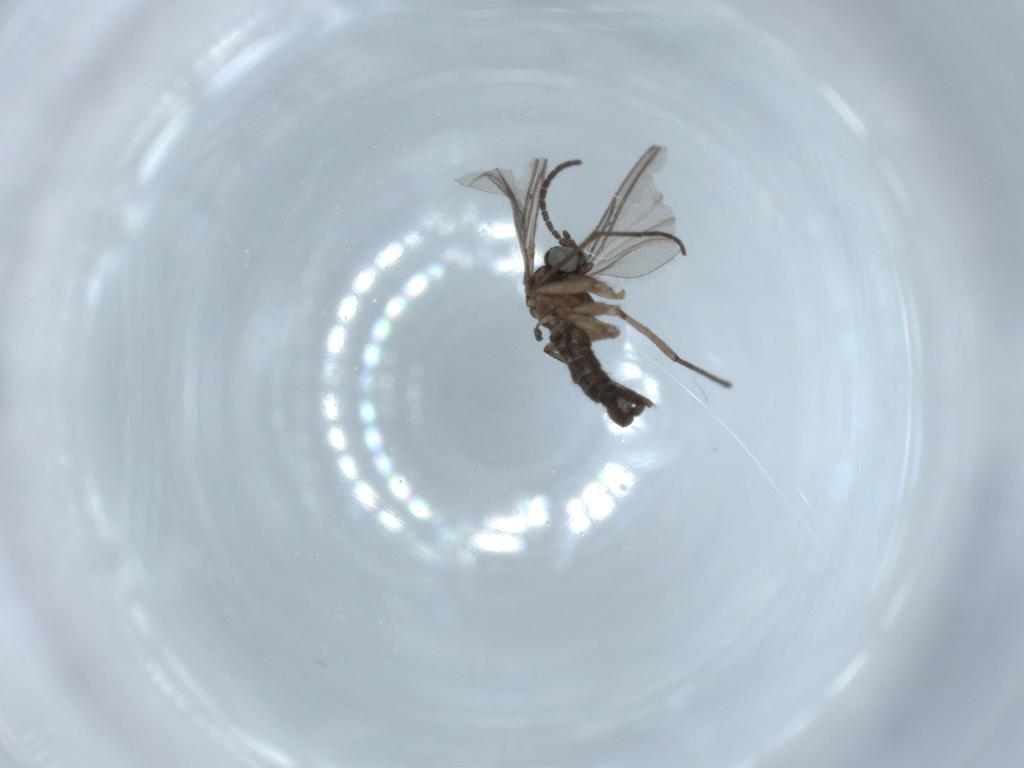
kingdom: Animalia
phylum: Arthropoda
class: Insecta
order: Diptera
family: Sciaridae
